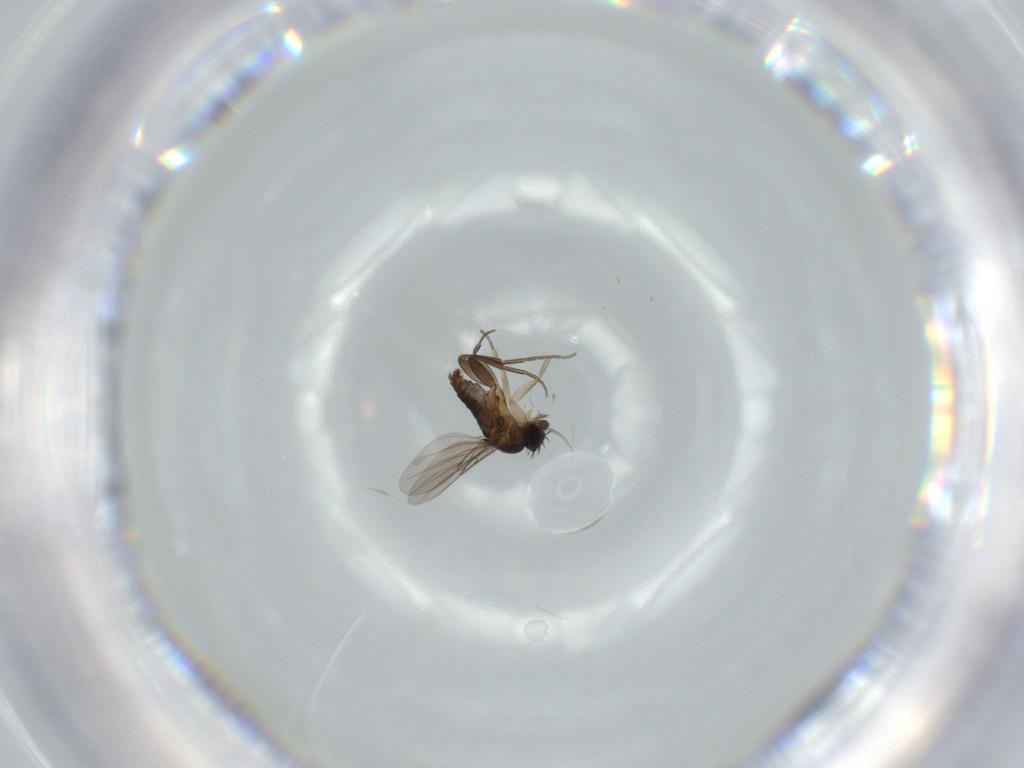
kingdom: Animalia
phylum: Arthropoda
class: Insecta
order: Diptera
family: Phoridae
